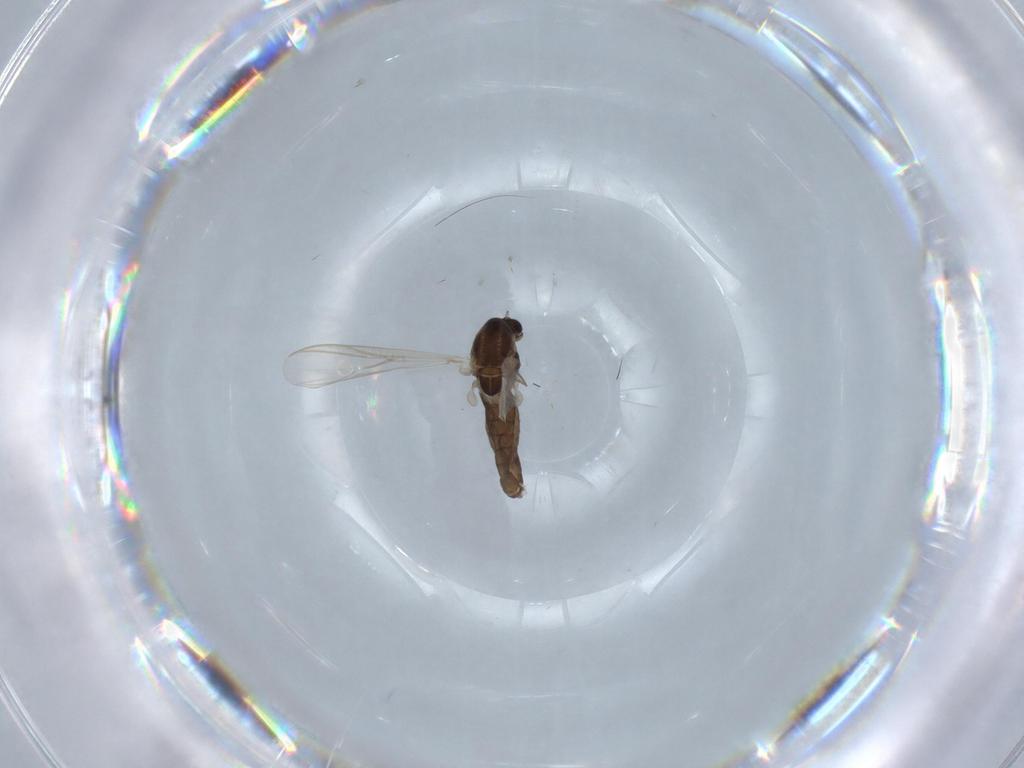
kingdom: Animalia
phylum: Arthropoda
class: Insecta
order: Diptera
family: Chironomidae
